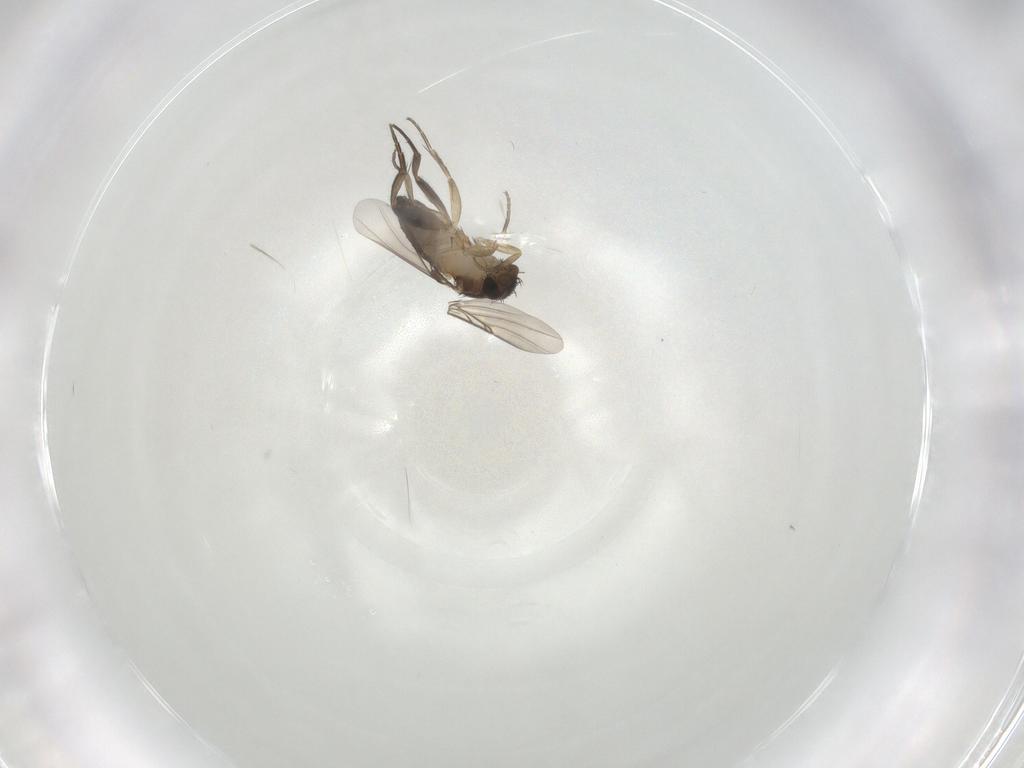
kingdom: Animalia
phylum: Arthropoda
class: Insecta
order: Diptera
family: Phoridae
